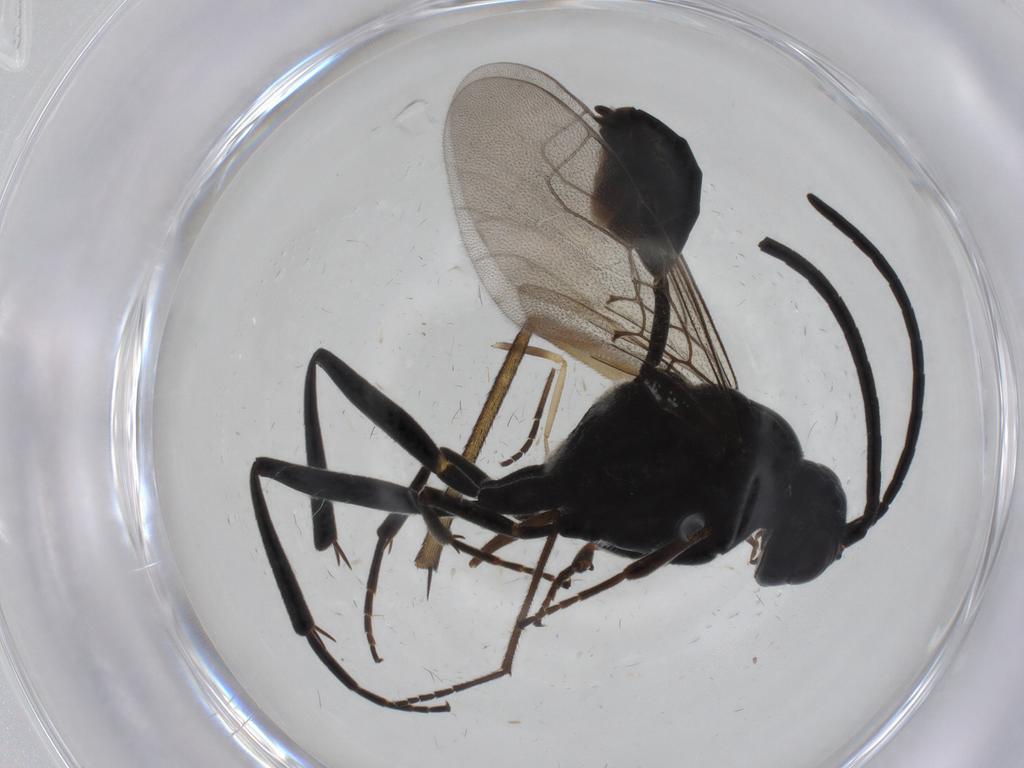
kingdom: Animalia
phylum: Arthropoda
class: Insecta
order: Hymenoptera
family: Evaniidae
